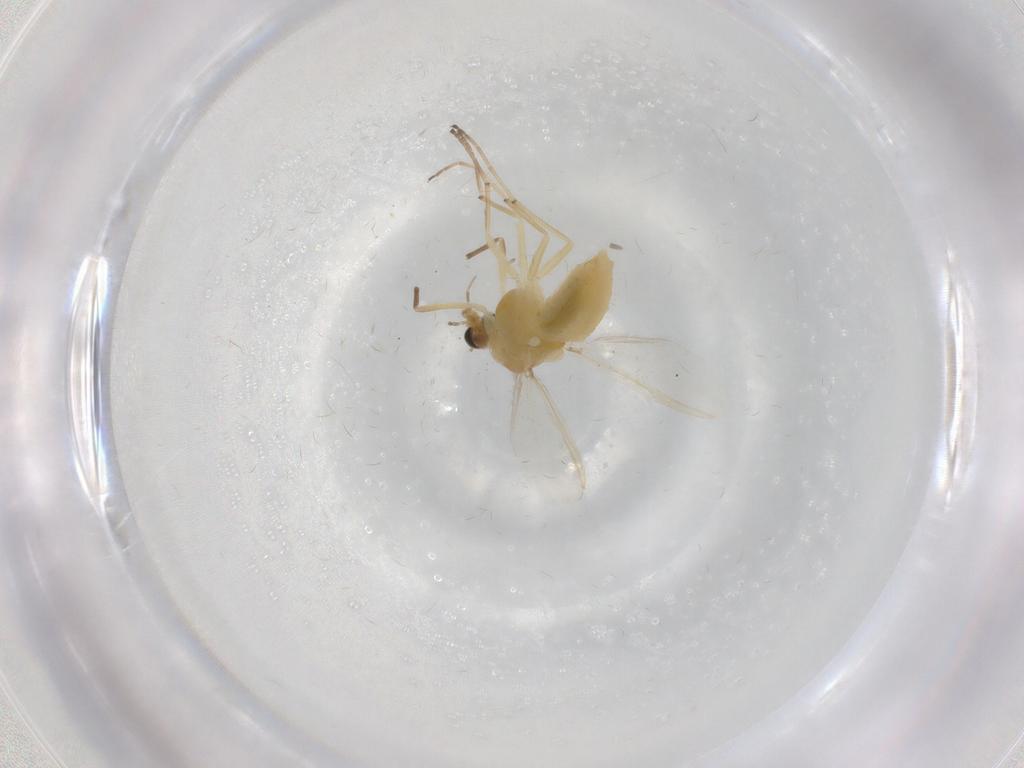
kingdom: Animalia
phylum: Arthropoda
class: Insecta
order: Diptera
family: Chironomidae
